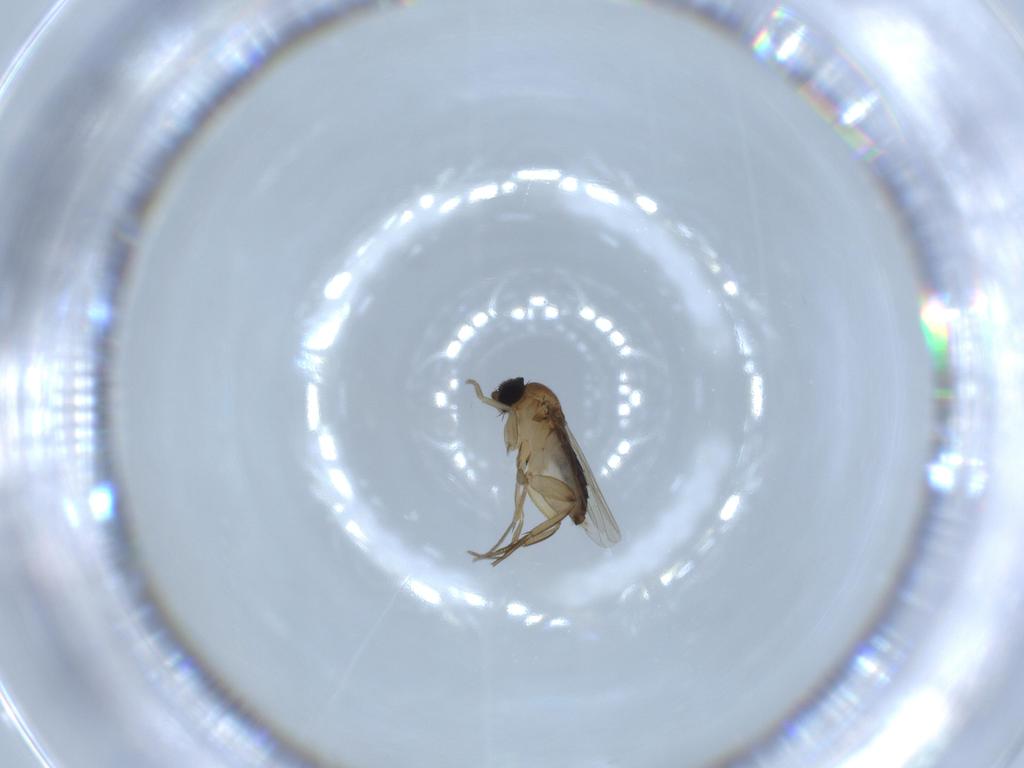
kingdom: Animalia
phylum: Arthropoda
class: Insecta
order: Diptera
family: Phoridae
